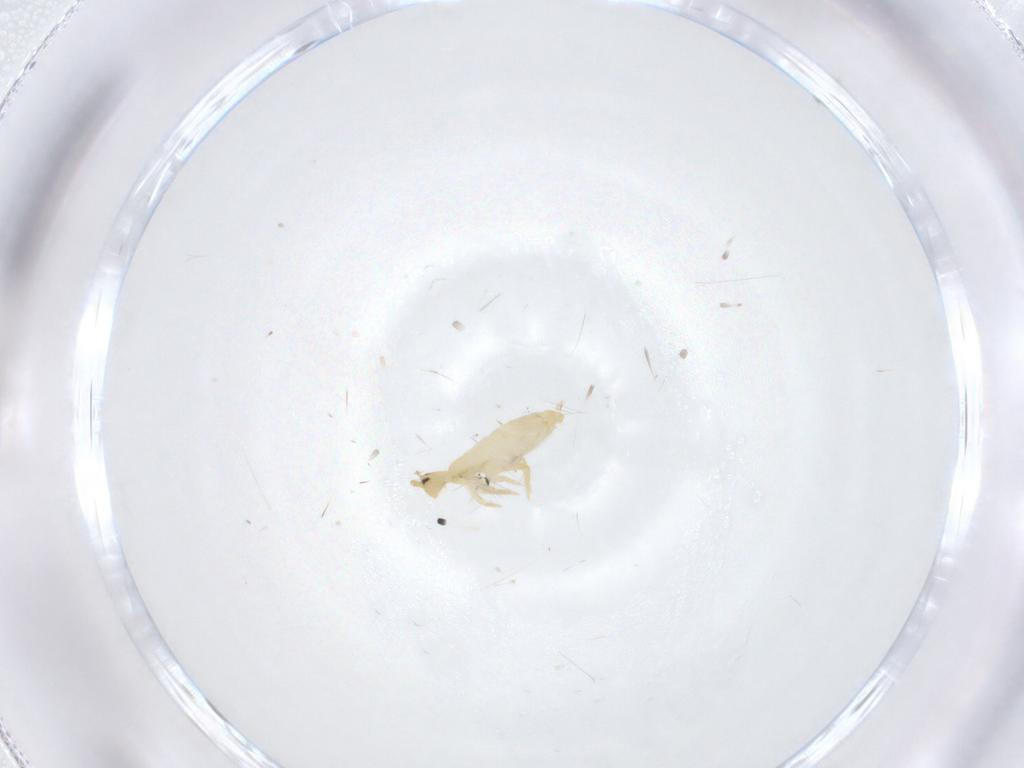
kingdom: Animalia
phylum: Arthropoda
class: Collembola
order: Entomobryomorpha
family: Entomobryidae
